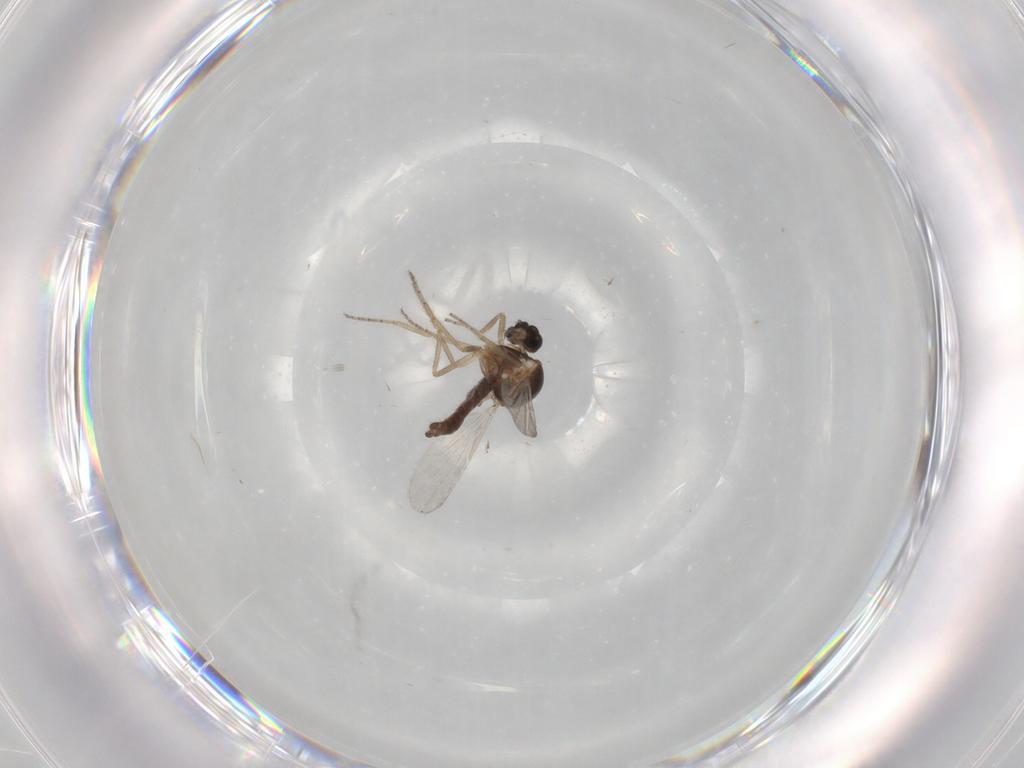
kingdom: Animalia
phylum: Arthropoda
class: Insecta
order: Diptera
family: Ceratopogonidae
